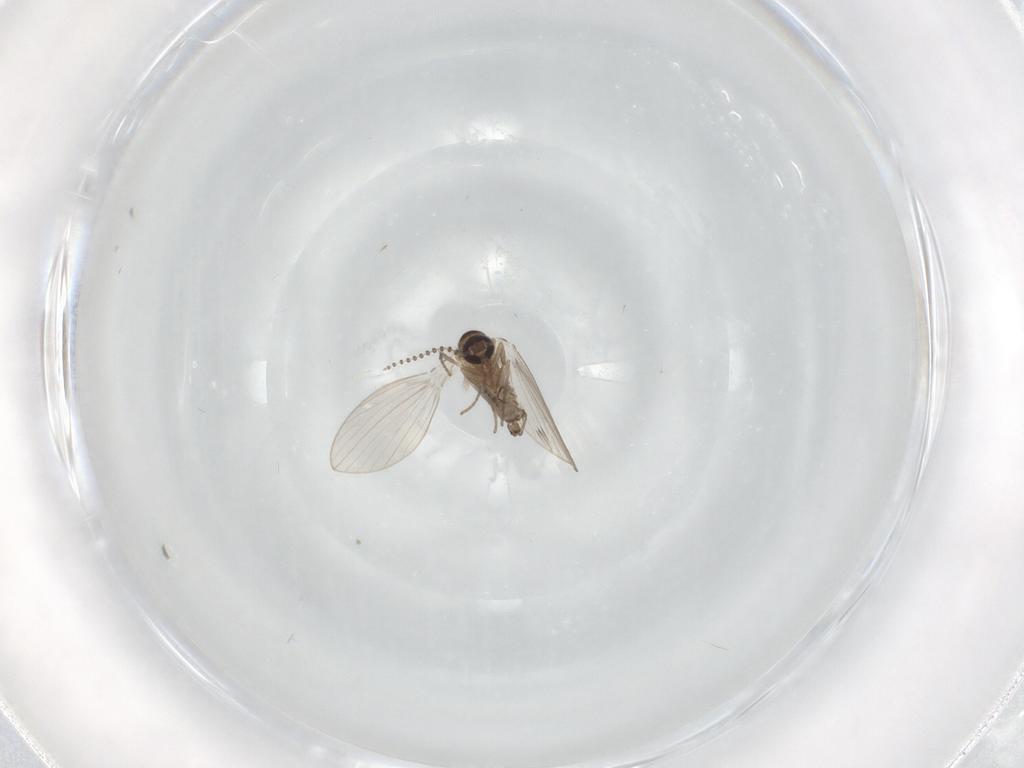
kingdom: Animalia
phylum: Arthropoda
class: Insecta
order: Diptera
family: Psychodidae
